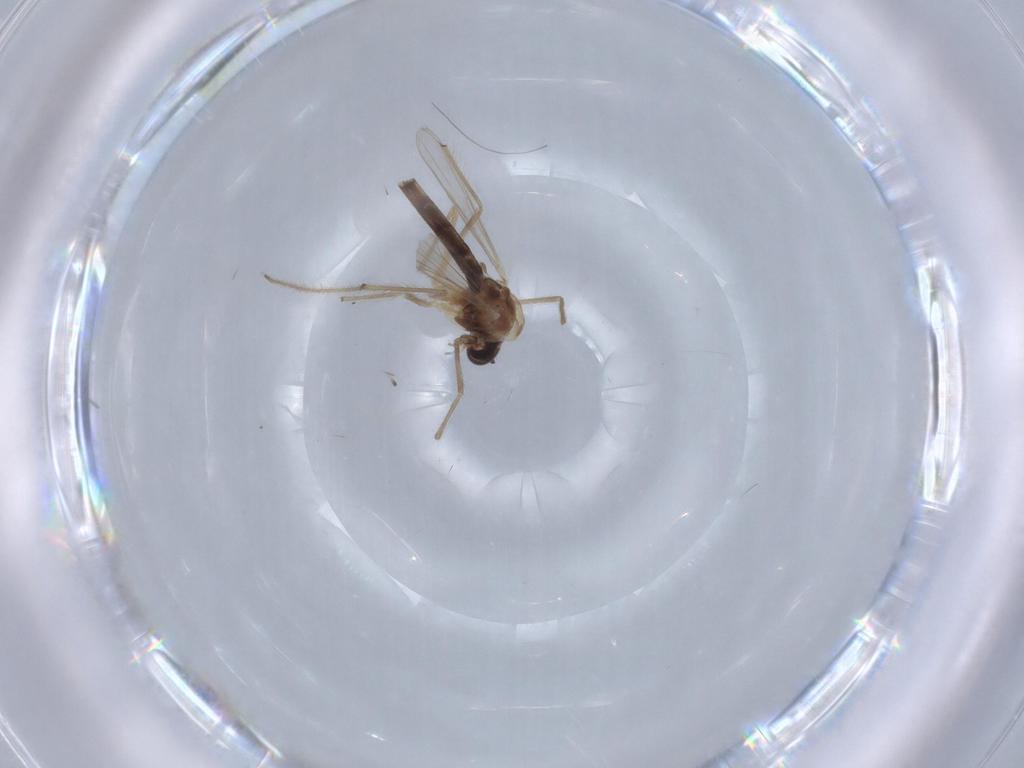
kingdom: Animalia
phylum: Arthropoda
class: Insecta
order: Diptera
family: Chironomidae
